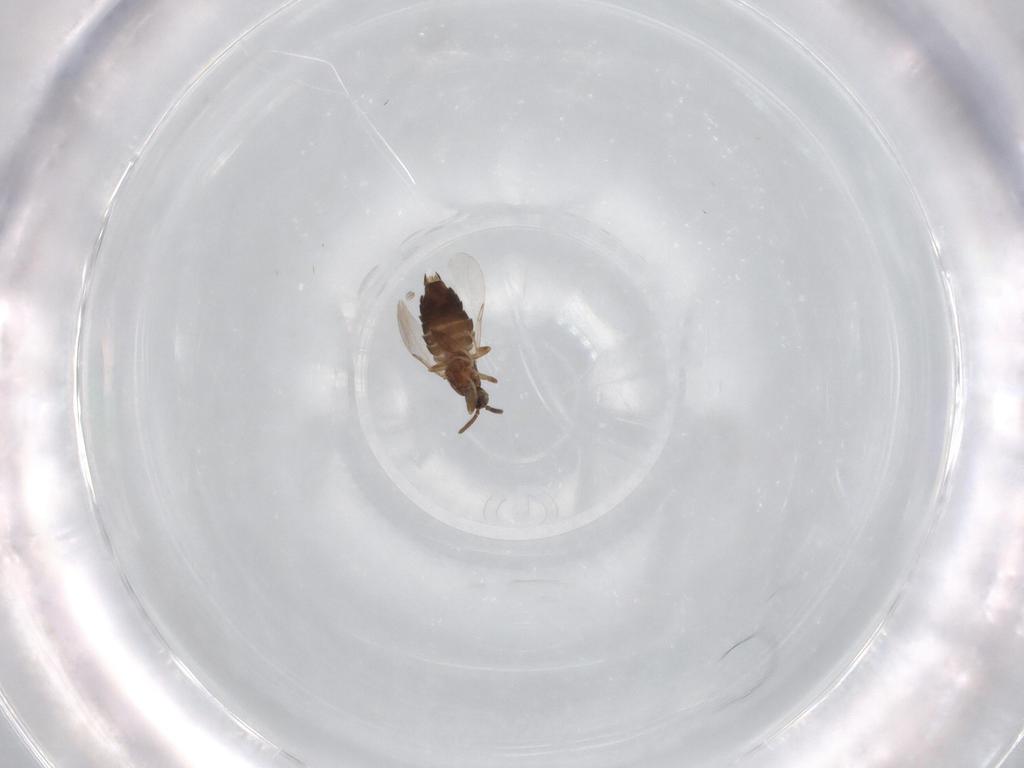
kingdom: Animalia
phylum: Arthropoda
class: Insecta
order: Diptera
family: Scatopsidae
